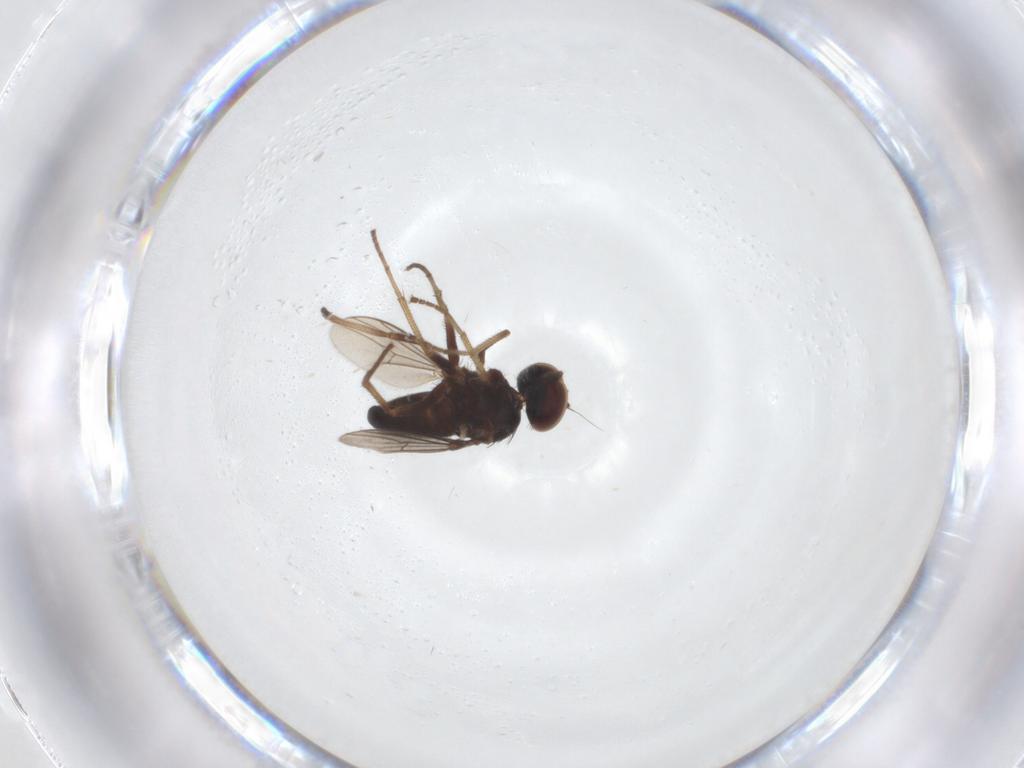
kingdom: Animalia
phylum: Arthropoda
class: Insecta
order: Diptera
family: Dolichopodidae
